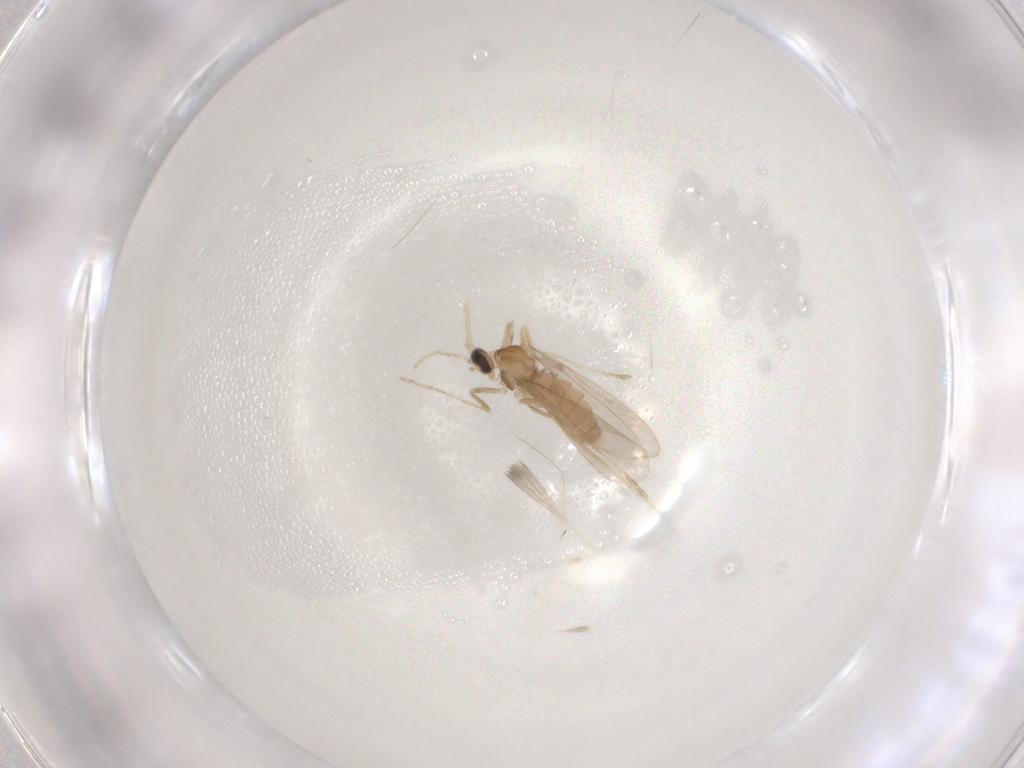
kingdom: Animalia
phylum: Arthropoda
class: Insecta
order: Diptera
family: Cecidomyiidae
